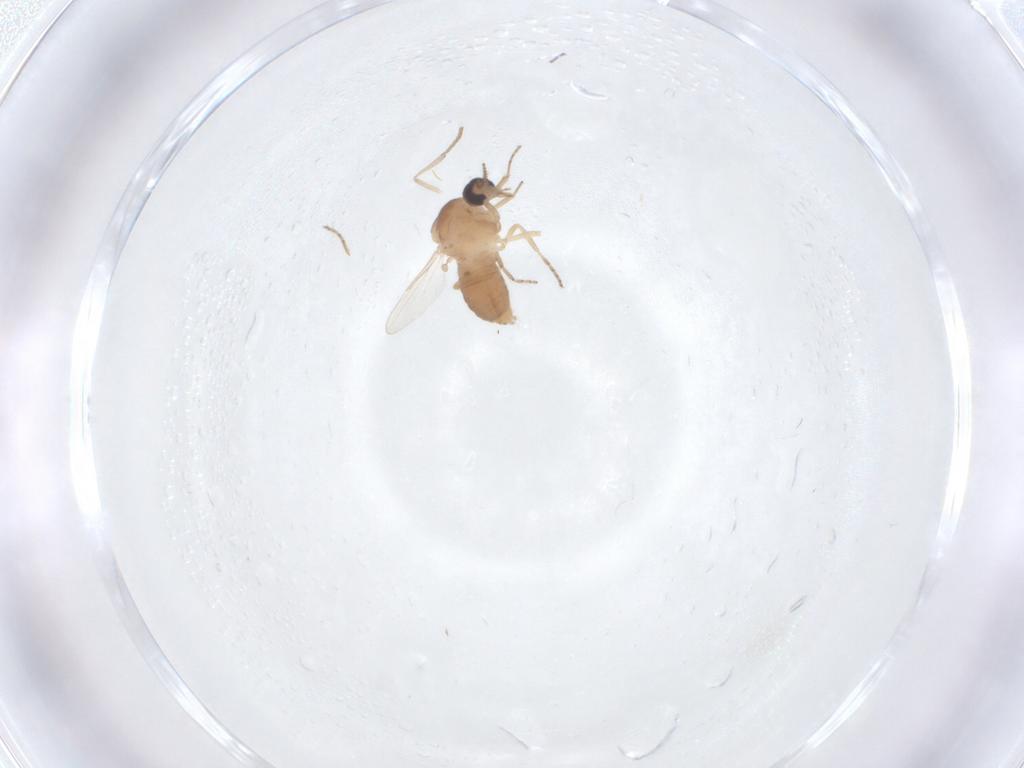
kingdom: Animalia
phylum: Arthropoda
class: Insecta
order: Diptera
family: Ceratopogonidae
